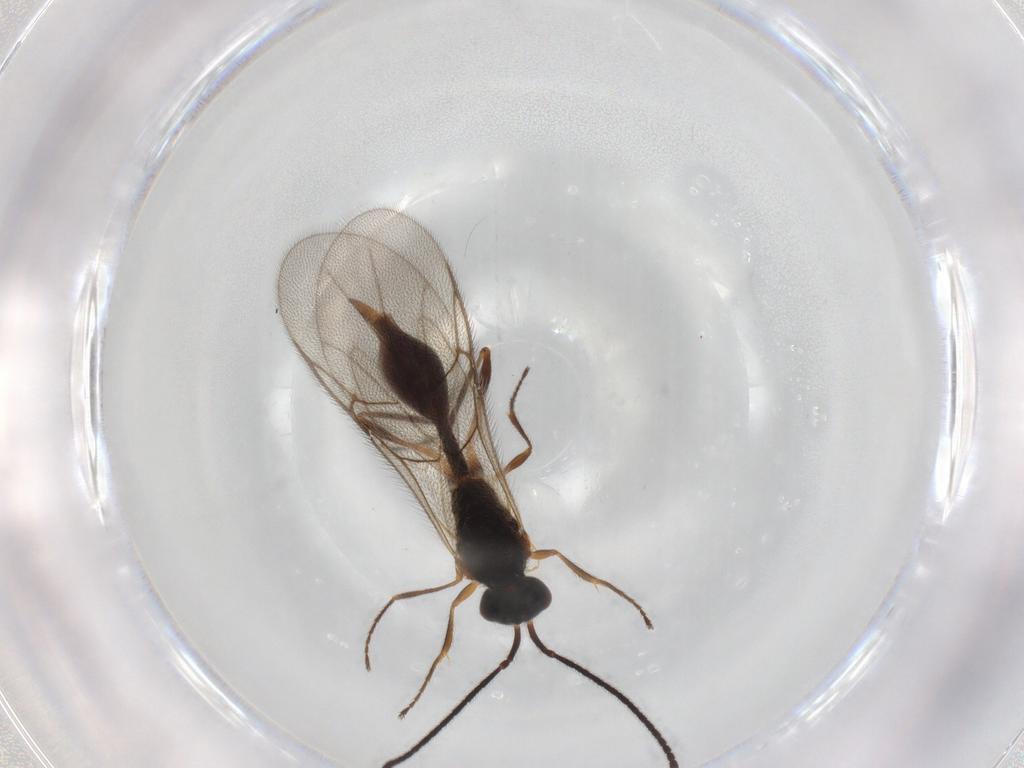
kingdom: Animalia
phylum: Arthropoda
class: Insecta
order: Hymenoptera
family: Diapriidae
